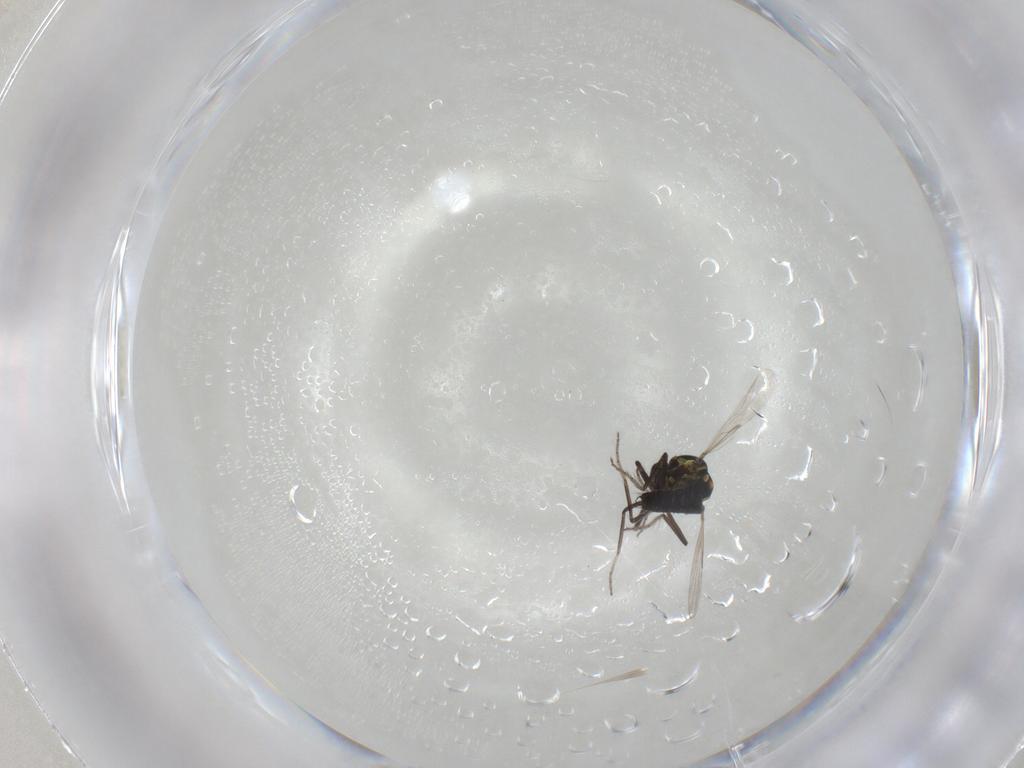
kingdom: Animalia
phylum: Arthropoda
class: Insecta
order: Diptera
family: Ceratopogonidae
